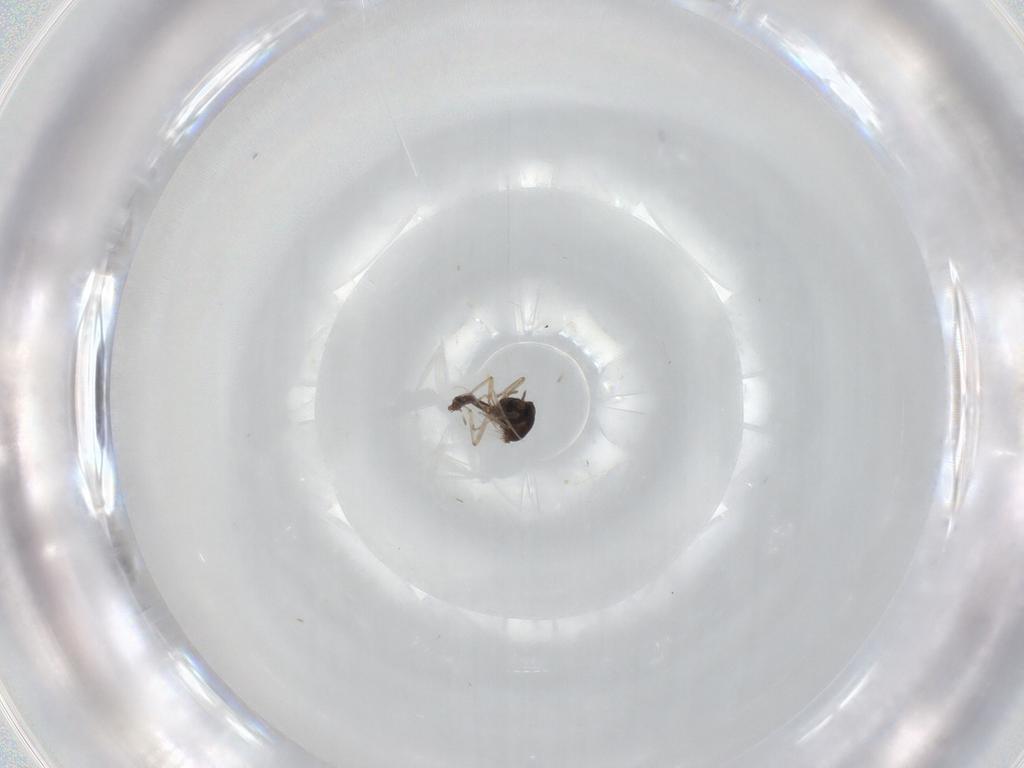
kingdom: Animalia
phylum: Arthropoda
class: Insecta
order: Diptera
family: Ceratopogonidae
